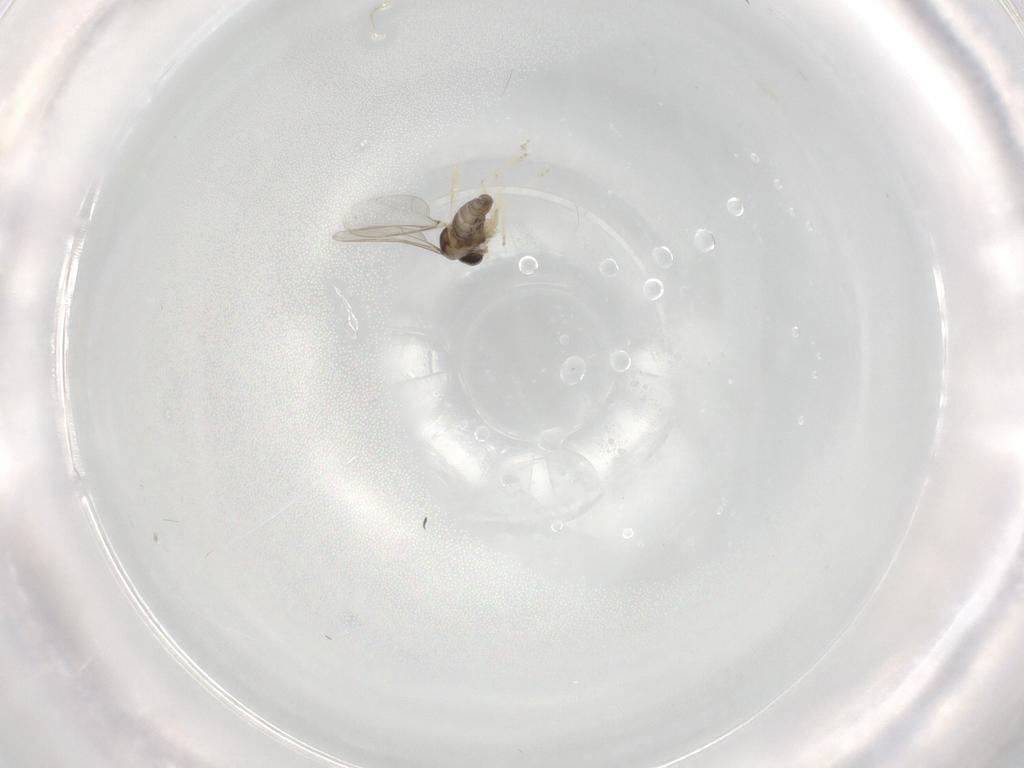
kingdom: Animalia
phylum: Arthropoda
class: Insecta
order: Diptera
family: Cecidomyiidae
